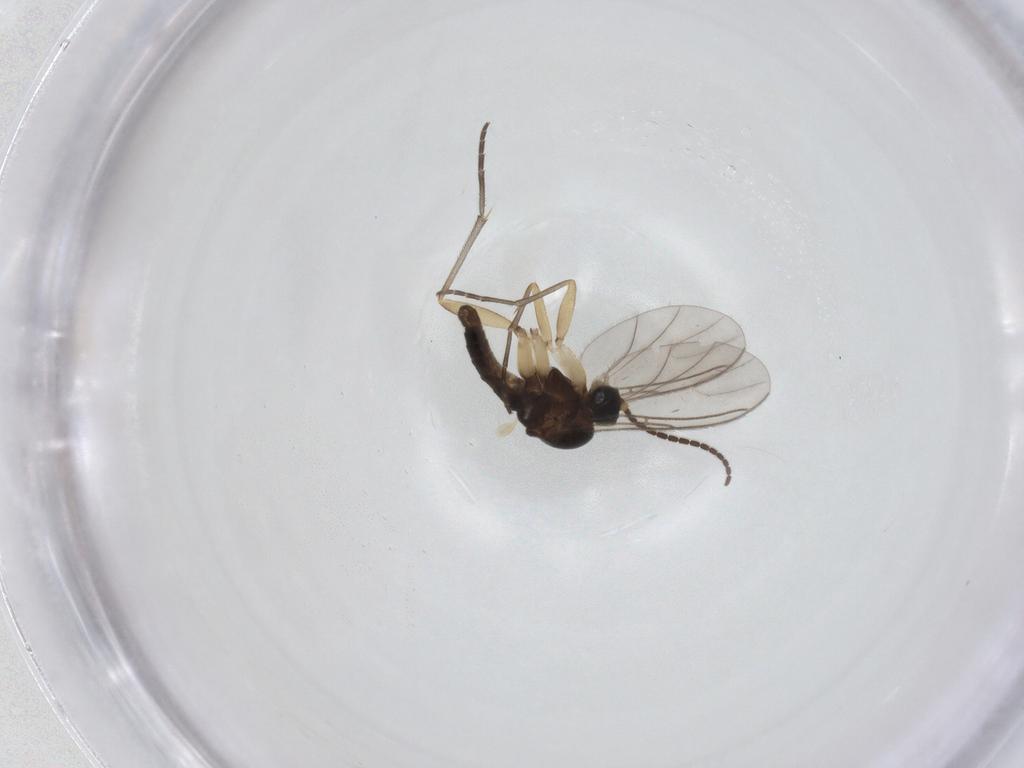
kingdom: Animalia
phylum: Arthropoda
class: Insecta
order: Diptera
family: Sciaridae
